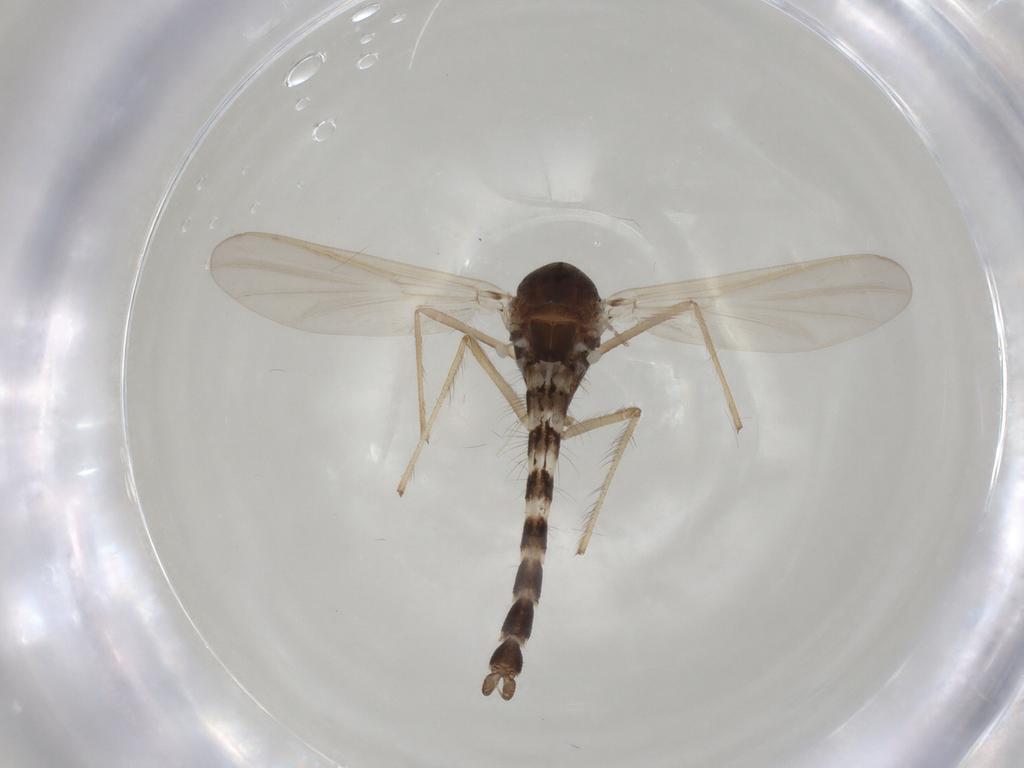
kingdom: Animalia
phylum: Arthropoda
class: Insecta
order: Diptera
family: Chironomidae
